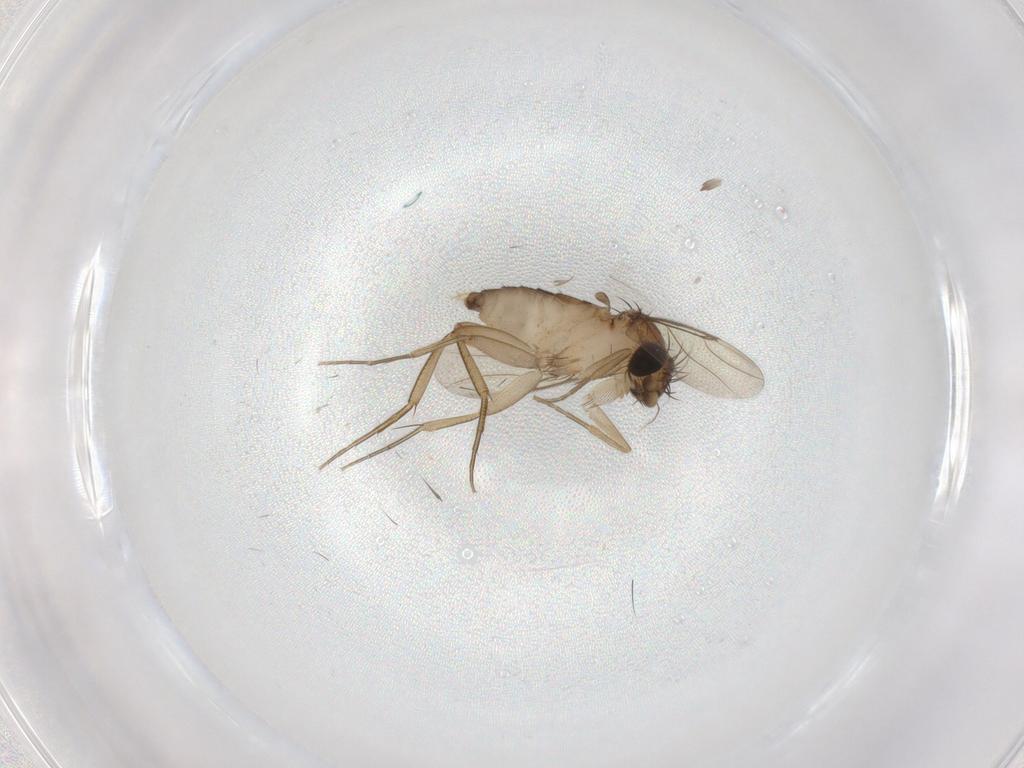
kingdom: Animalia
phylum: Arthropoda
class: Insecta
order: Diptera
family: Phoridae
